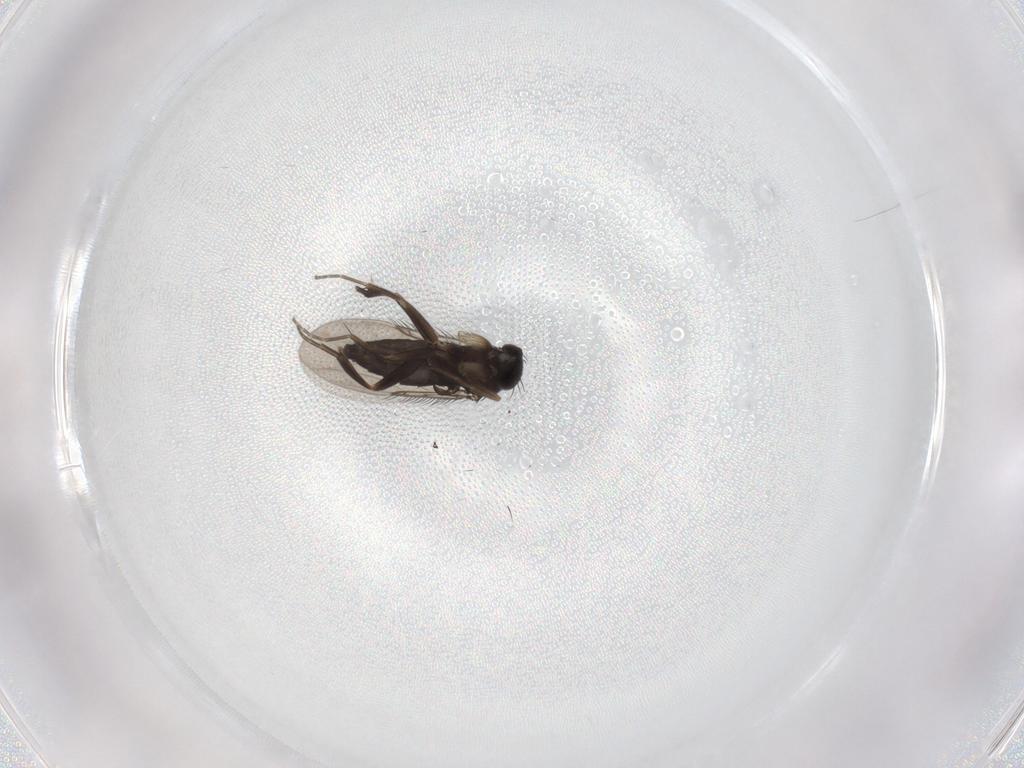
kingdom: Animalia
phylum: Arthropoda
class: Insecta
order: Diptera
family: Phoridae
